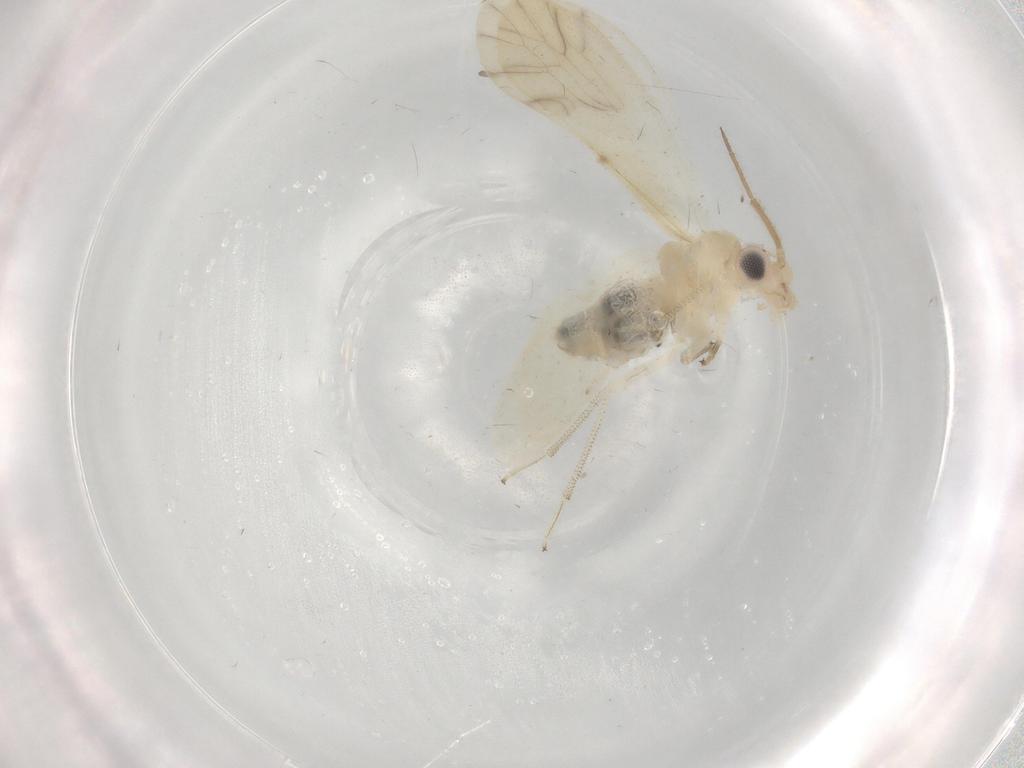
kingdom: Animalia
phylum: Arthropoda
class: Insecta
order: Psocodea
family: Caeciliusidae
